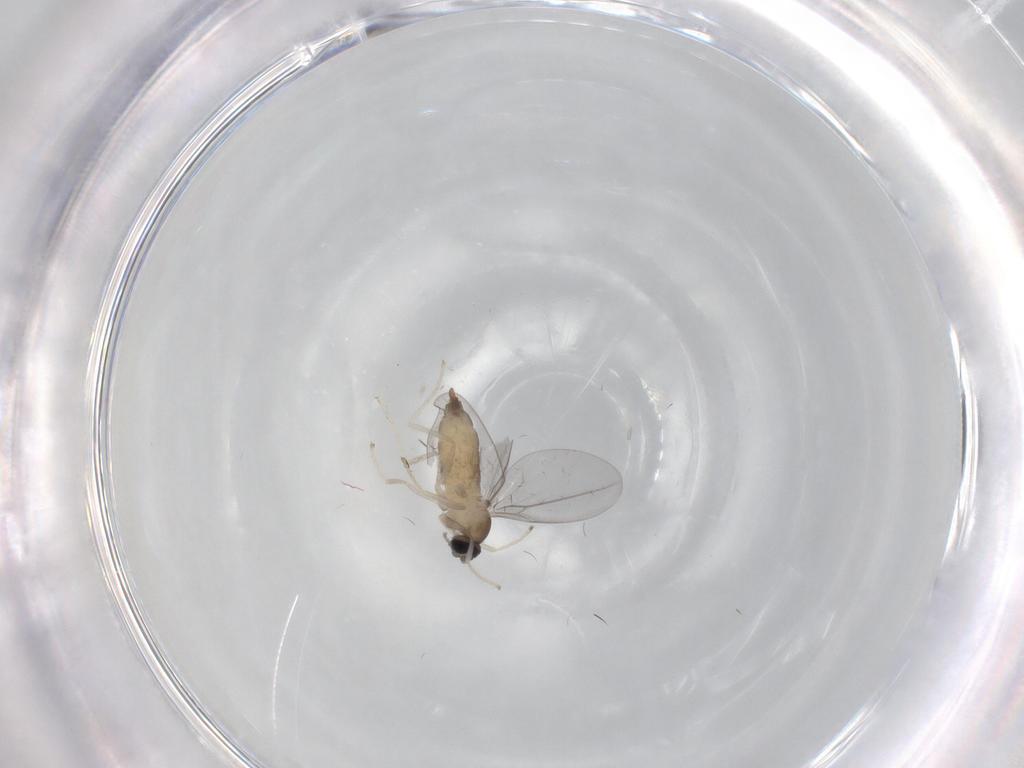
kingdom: Animalia
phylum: Arthropoda
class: Insecta
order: Diptera
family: Cecidomyiidae
